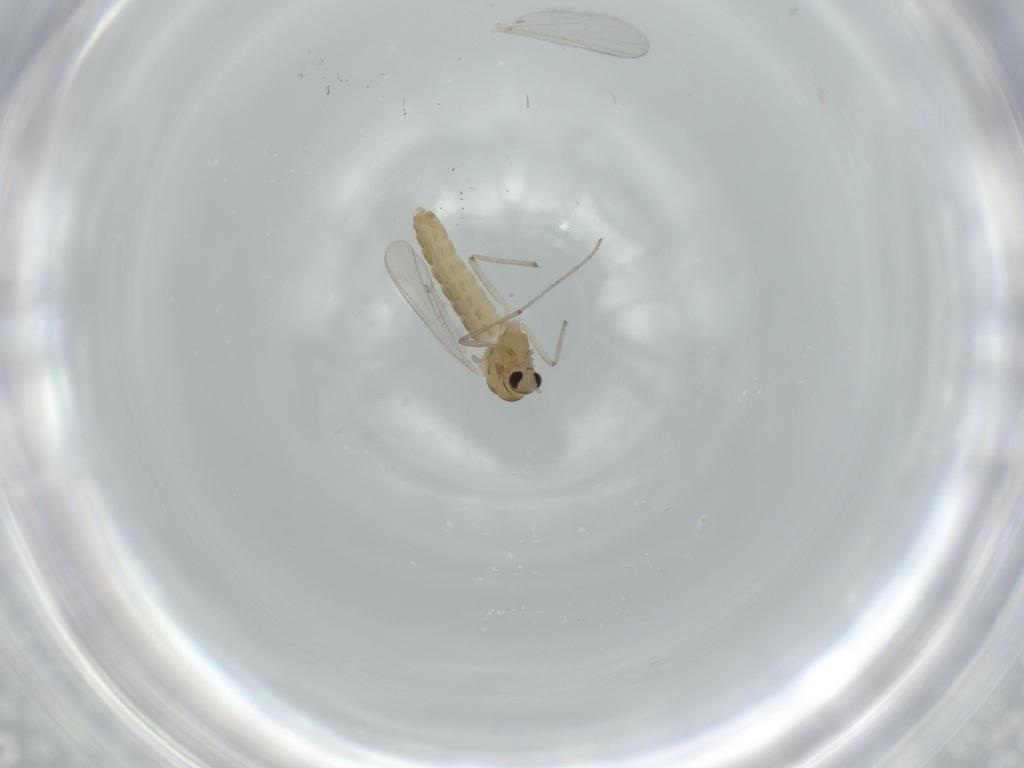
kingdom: Animalia
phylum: Arthropoda
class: Insecta
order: Diptera
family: Chironomidae
